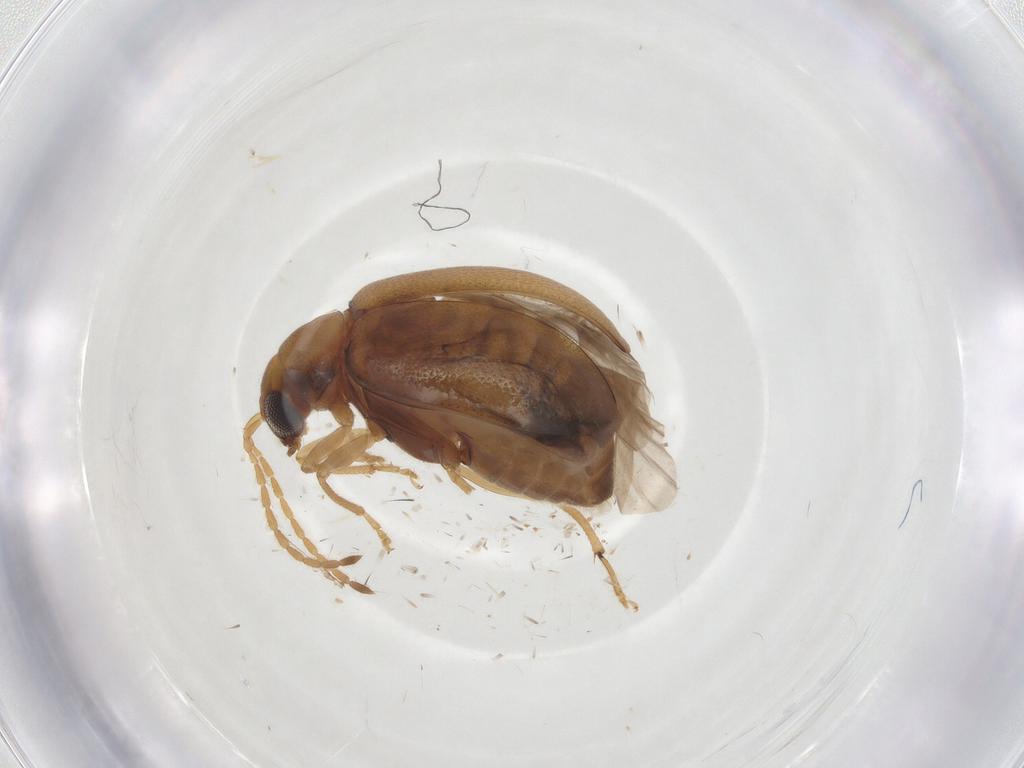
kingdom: Animalia
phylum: Arthropoda
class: Insecta
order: Coleoptera
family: Chrysomelidae
